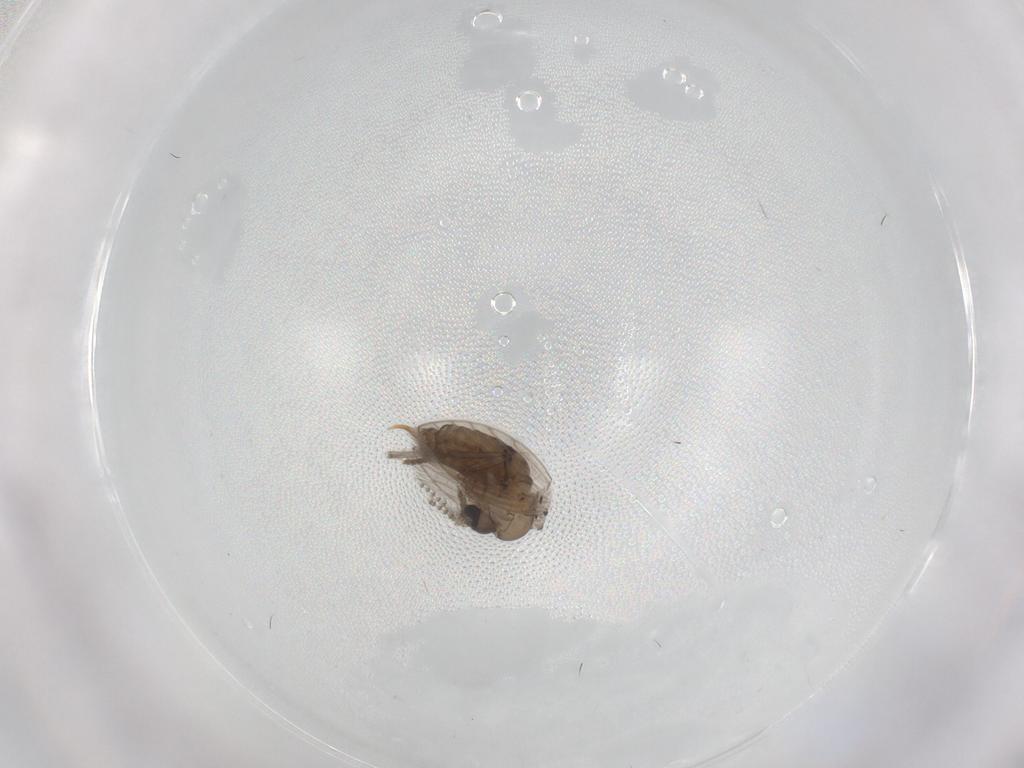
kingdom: Animalia
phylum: Arthropoda
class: Insecta
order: Diptera
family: Psychodidae
